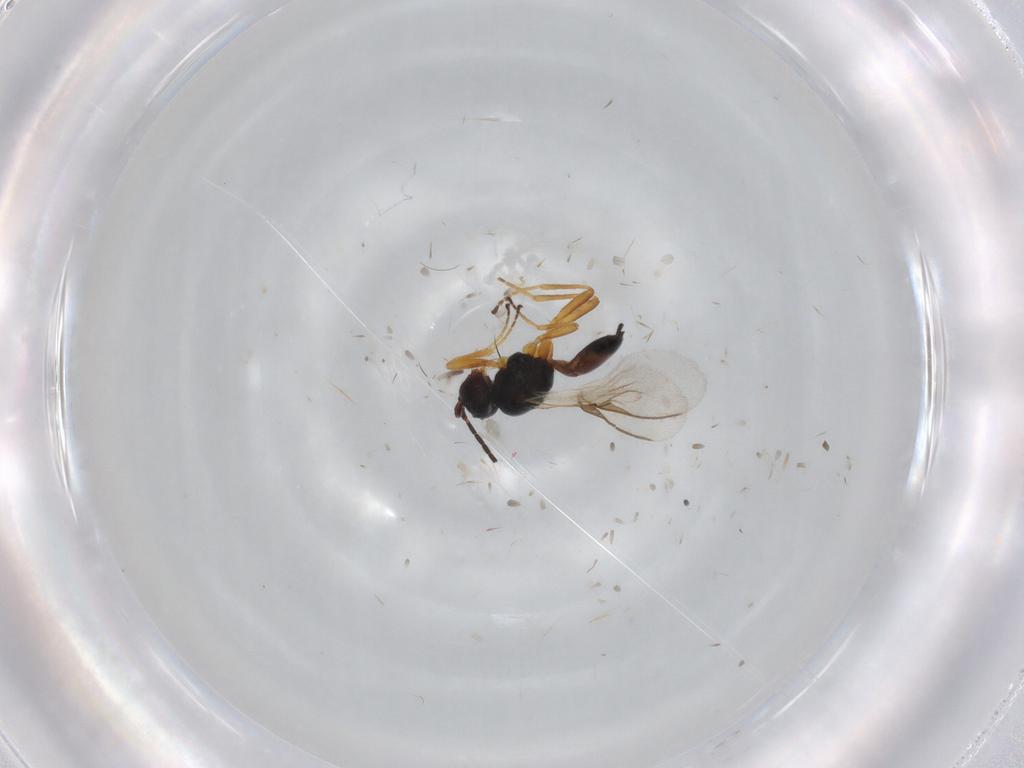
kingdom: Animalia
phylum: Arthropoda
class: Insecta
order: Hymenoptera
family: Braconidae
